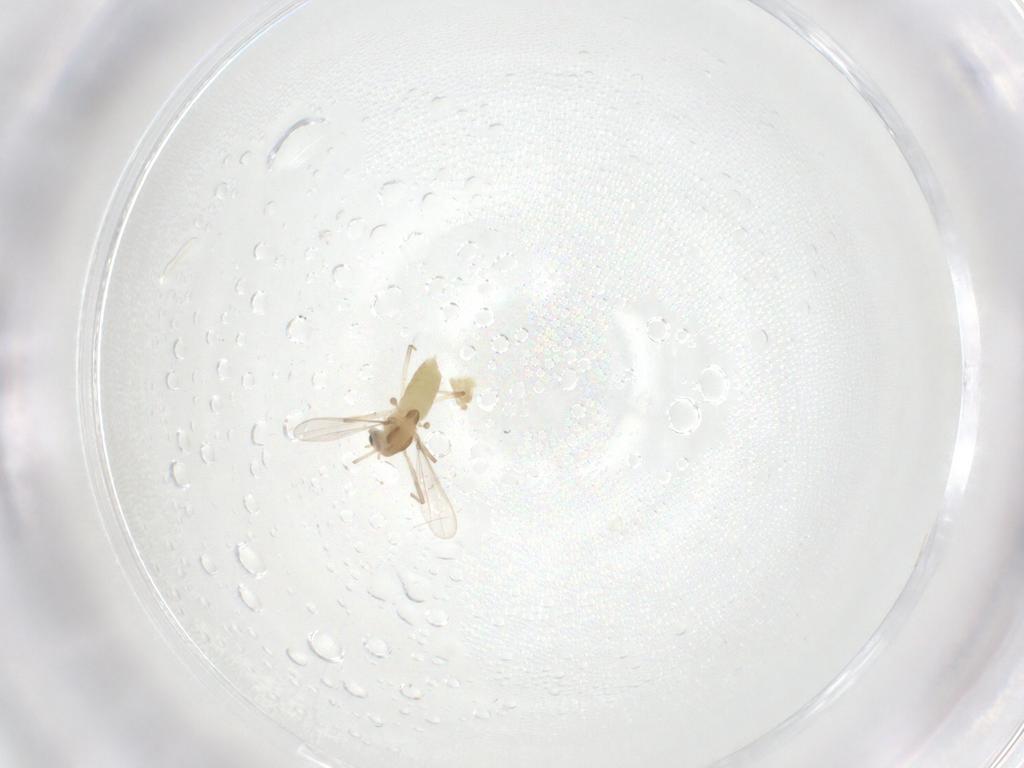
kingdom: Animalia
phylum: Arthropoda
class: Insecta
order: Diptera
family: Chironomidae
